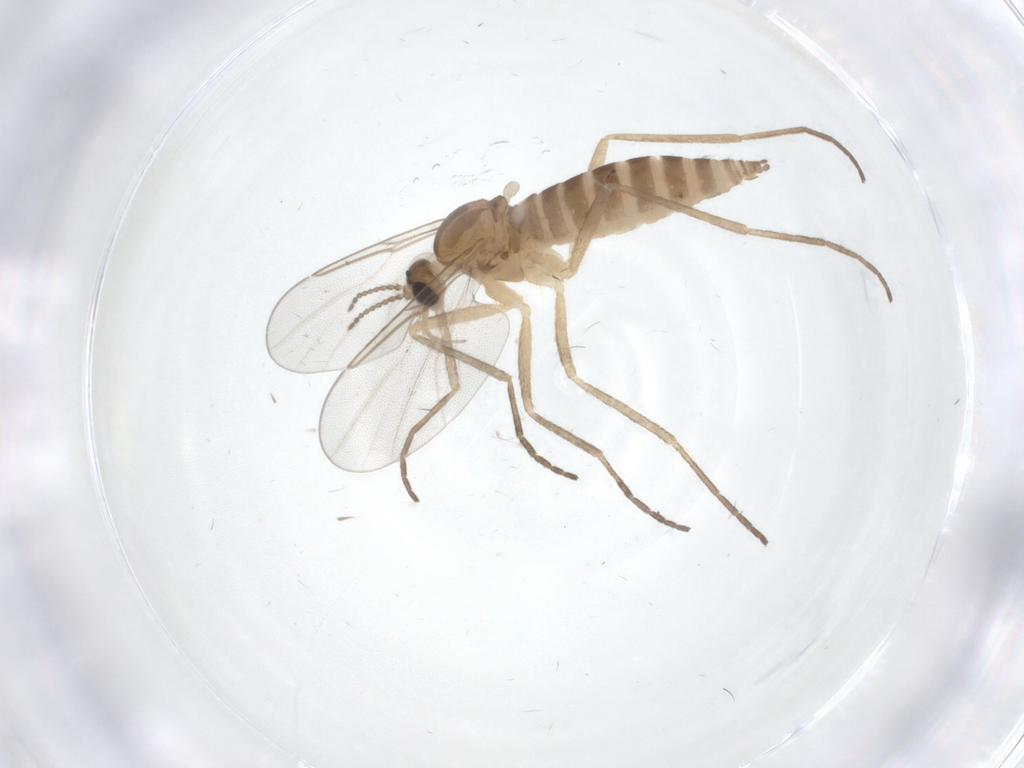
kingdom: Animalia
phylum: Arthropoda
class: Insecta
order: Diptera
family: Cecidomyiidae
